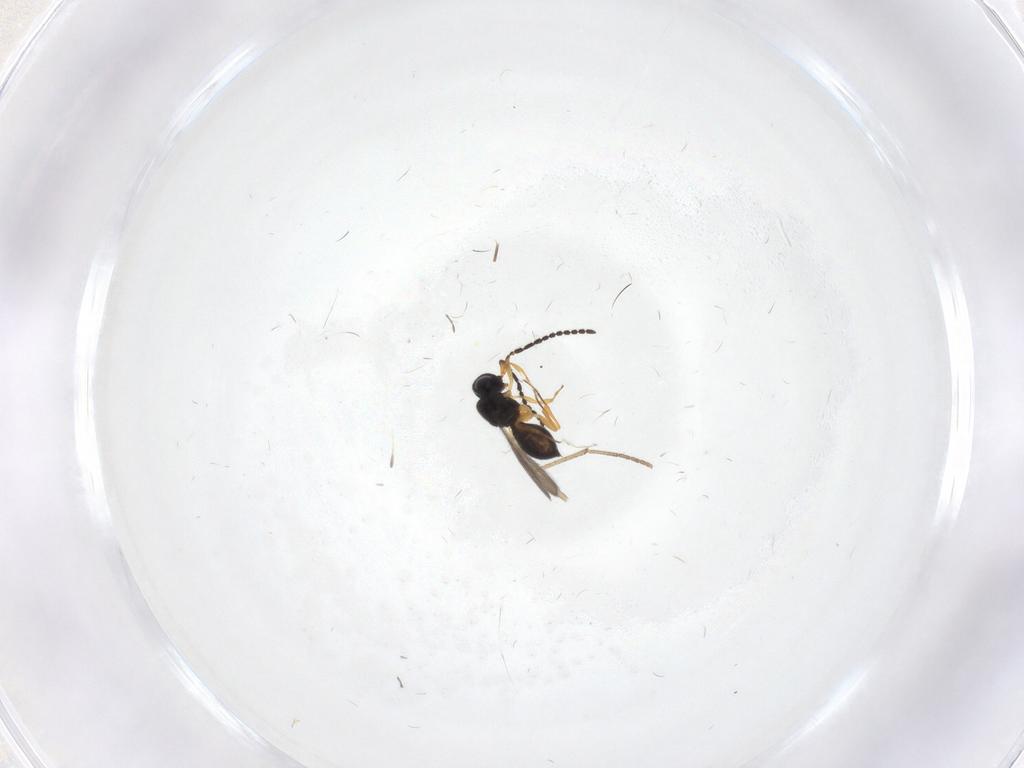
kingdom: Animalia
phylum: Arthropoda
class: Insecta
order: Hymenoptera
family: Scelionidae
